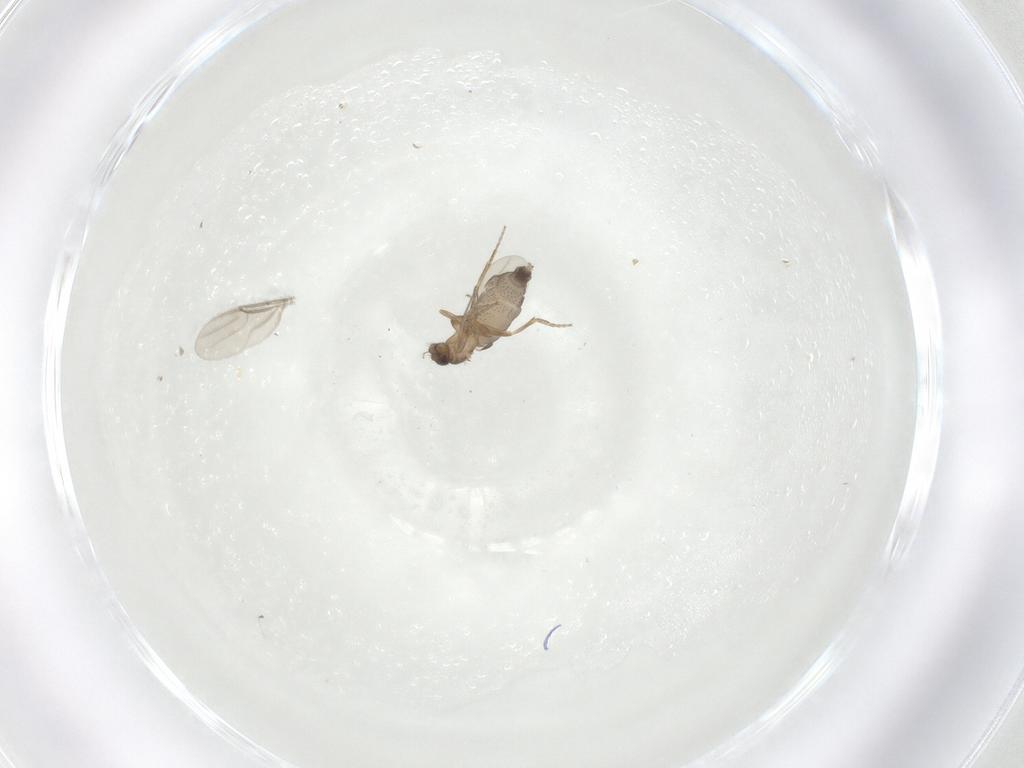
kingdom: Animalia
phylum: Arthropoda
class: Insecta
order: Diptera
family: Phoridae
